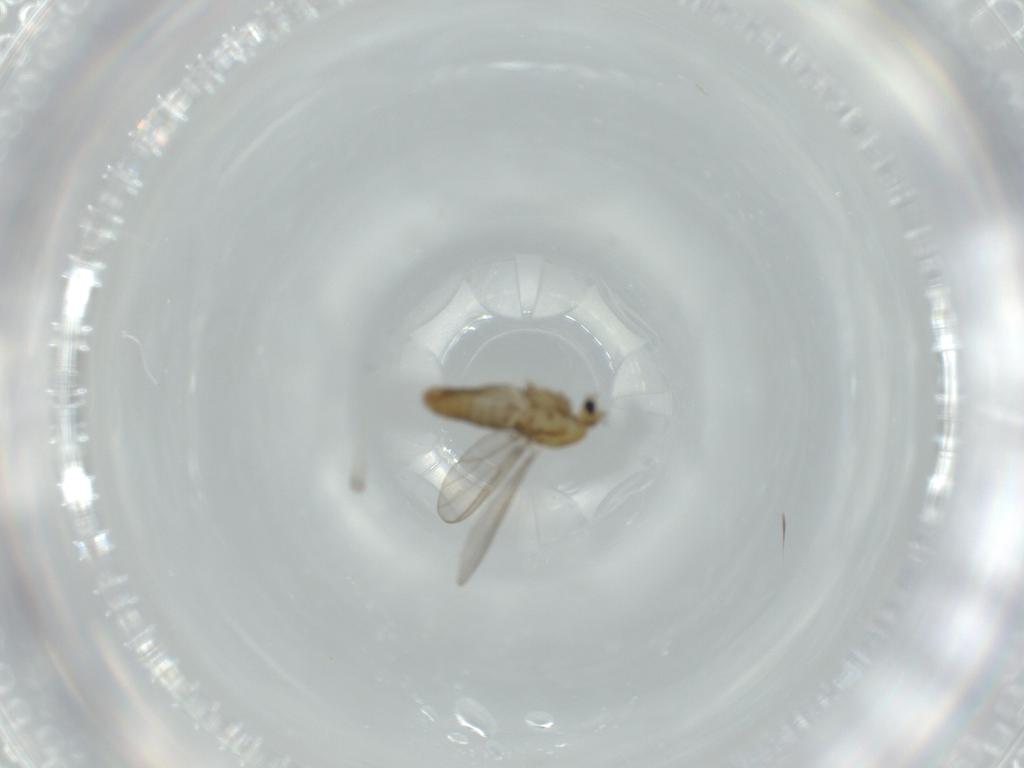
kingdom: Animalia
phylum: Arthropoda
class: Insecta
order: Diptera
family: Chironomidae
